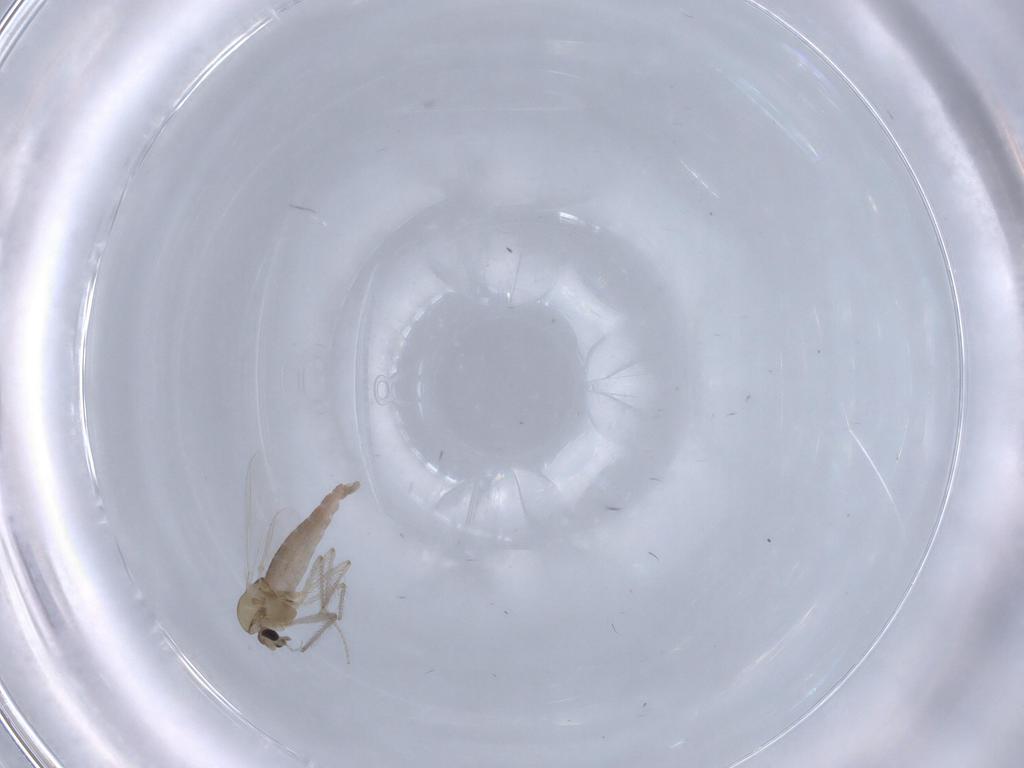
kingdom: Animalia
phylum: Arthropoda
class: Insecta
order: Diptera
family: Chironomidae
